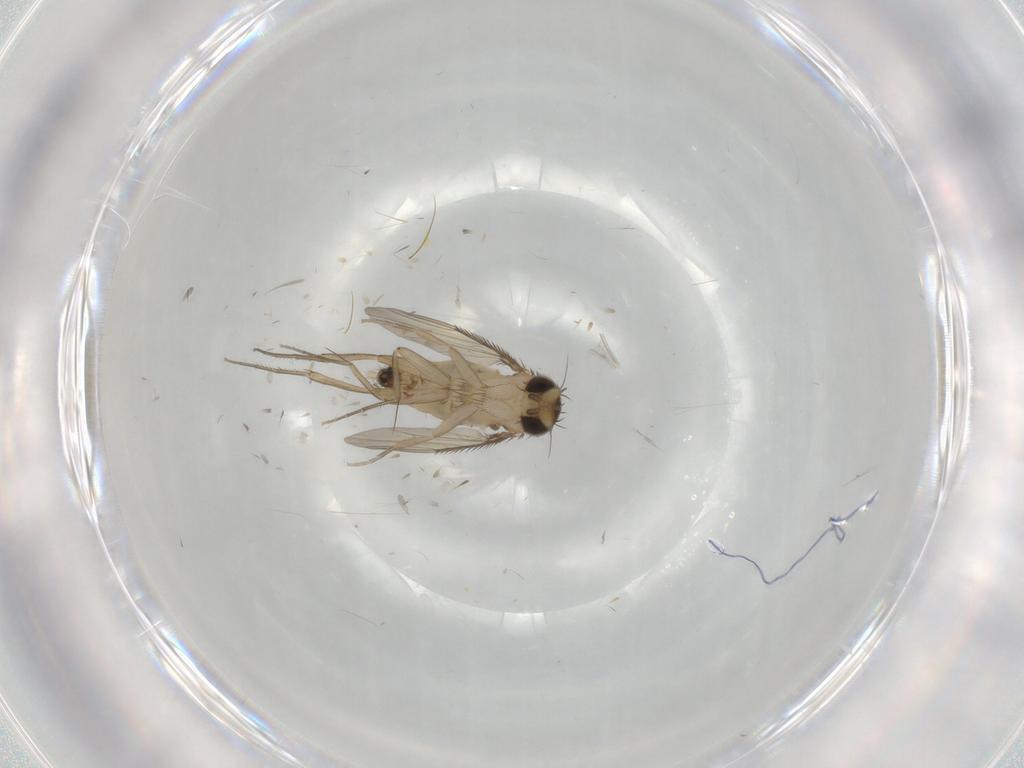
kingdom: Animalia
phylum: Arthropoda
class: Insecta
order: Diptera
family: Phoridae
